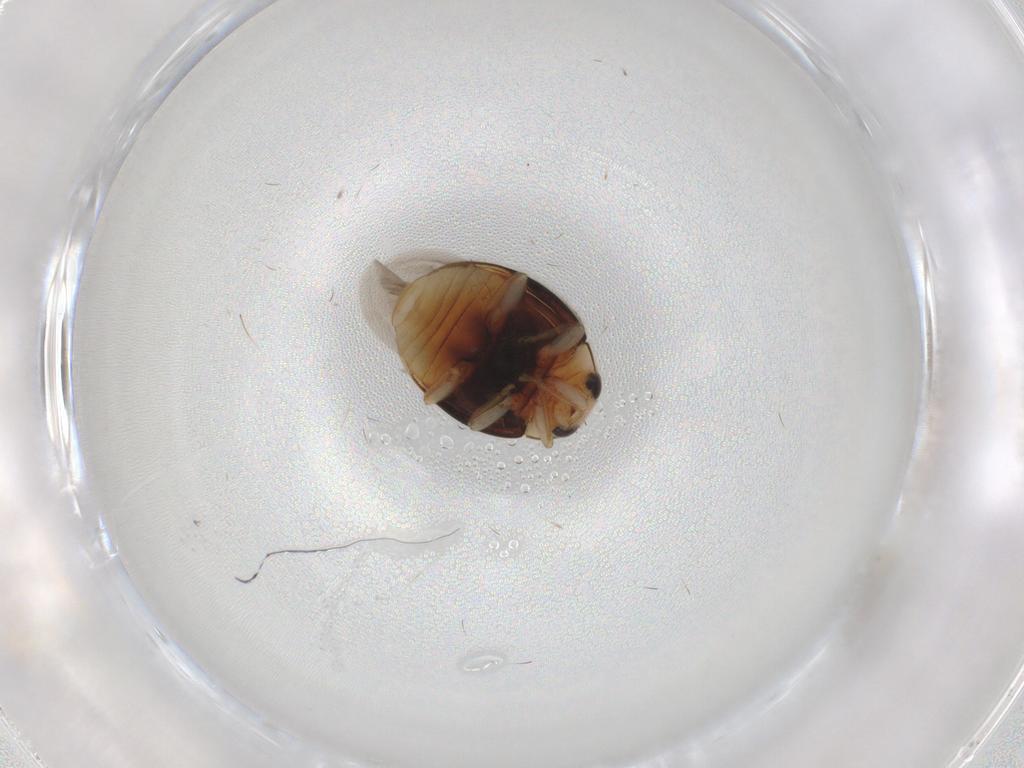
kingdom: Animalia
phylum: Arthropoda
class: Insecta
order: Coleoptera
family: Coccinellidae
